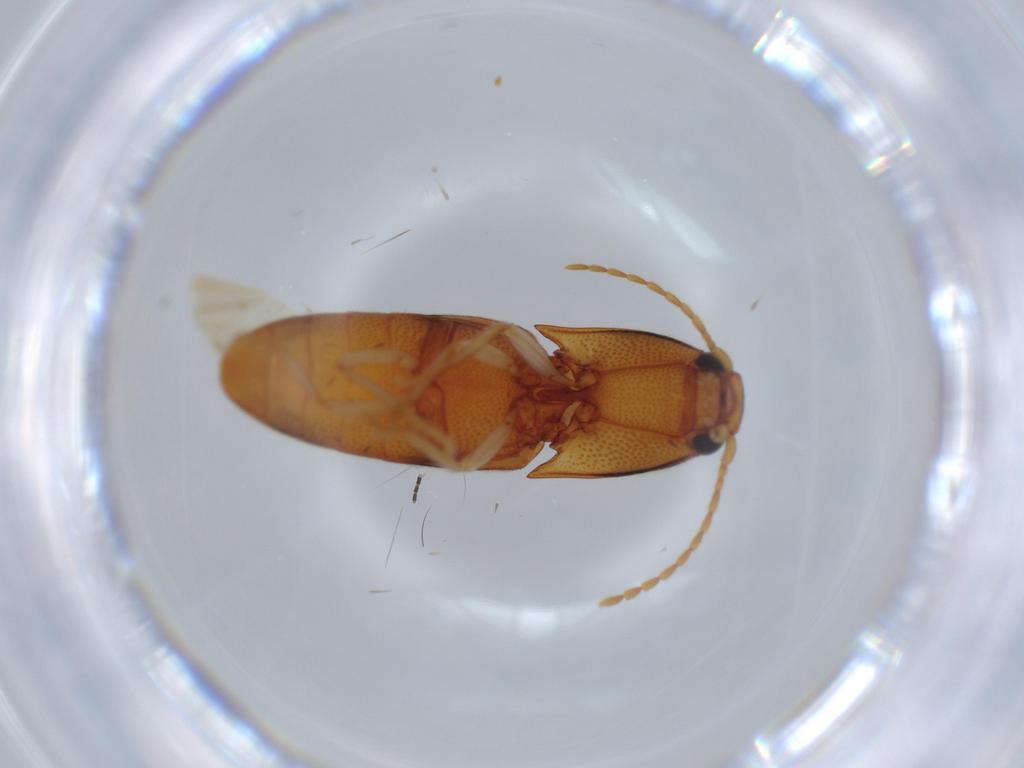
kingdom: Animalia
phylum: Arthropoda
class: Insecta
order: Coleoptera
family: Elateridae
